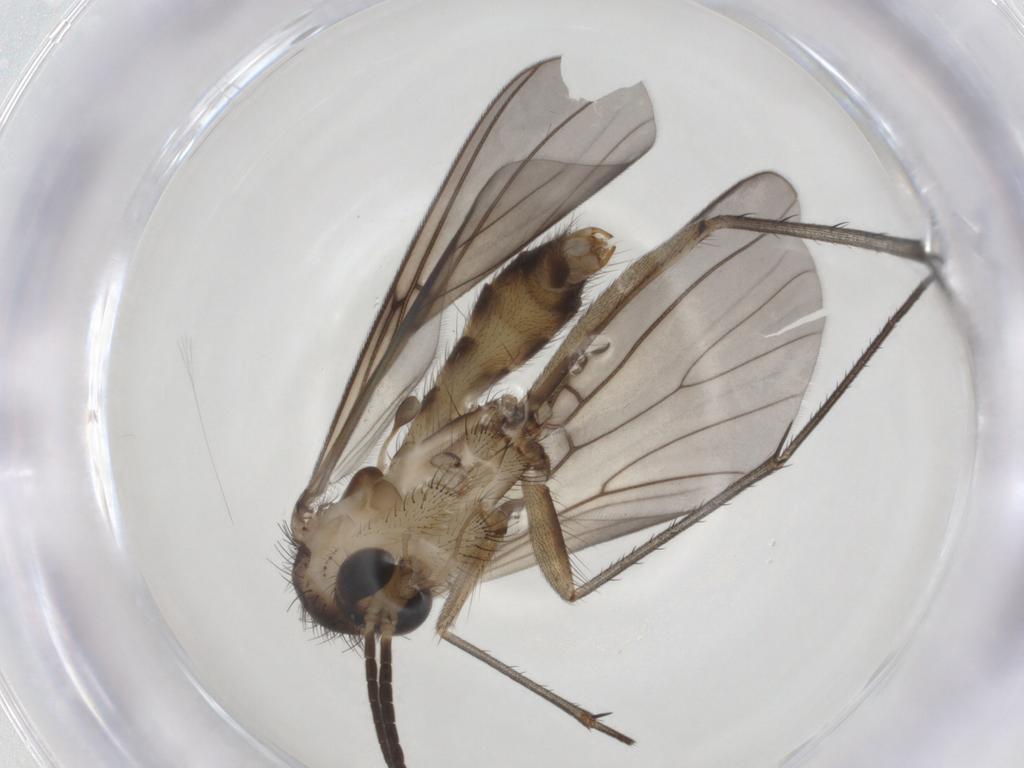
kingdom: Animalia
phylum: Arthropoda
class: Insecta
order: Diptera
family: Mycetophilidae
